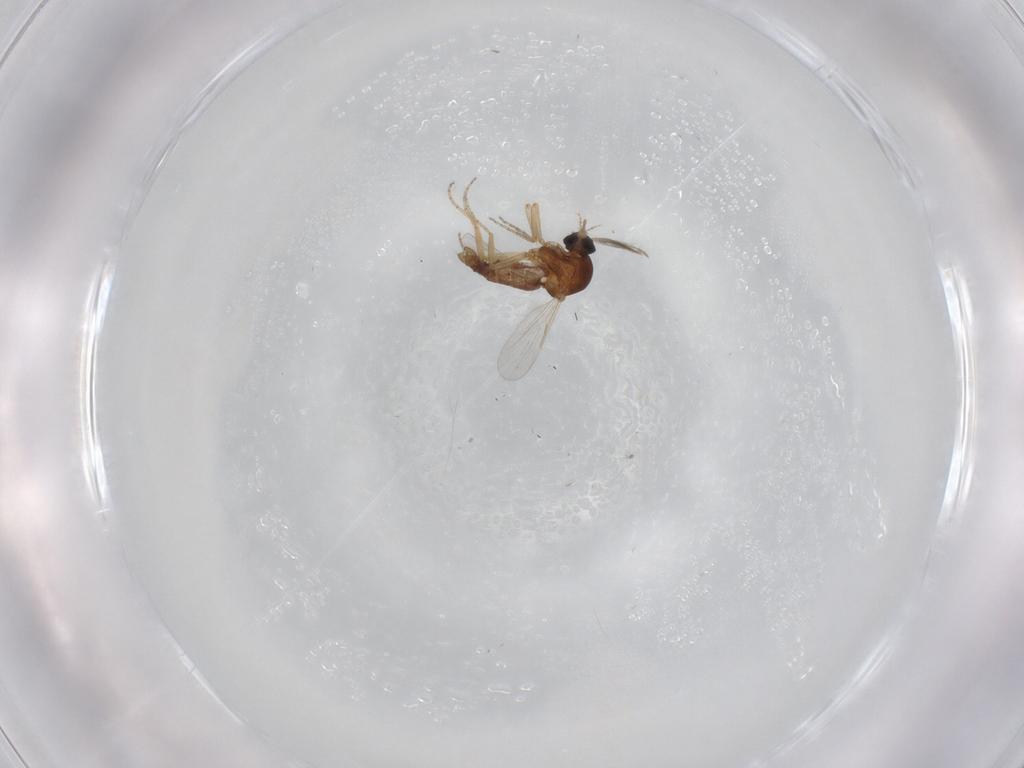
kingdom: Animalia
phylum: Arthropoda
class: Insecta
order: Diptera
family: Ceratopogonidae
